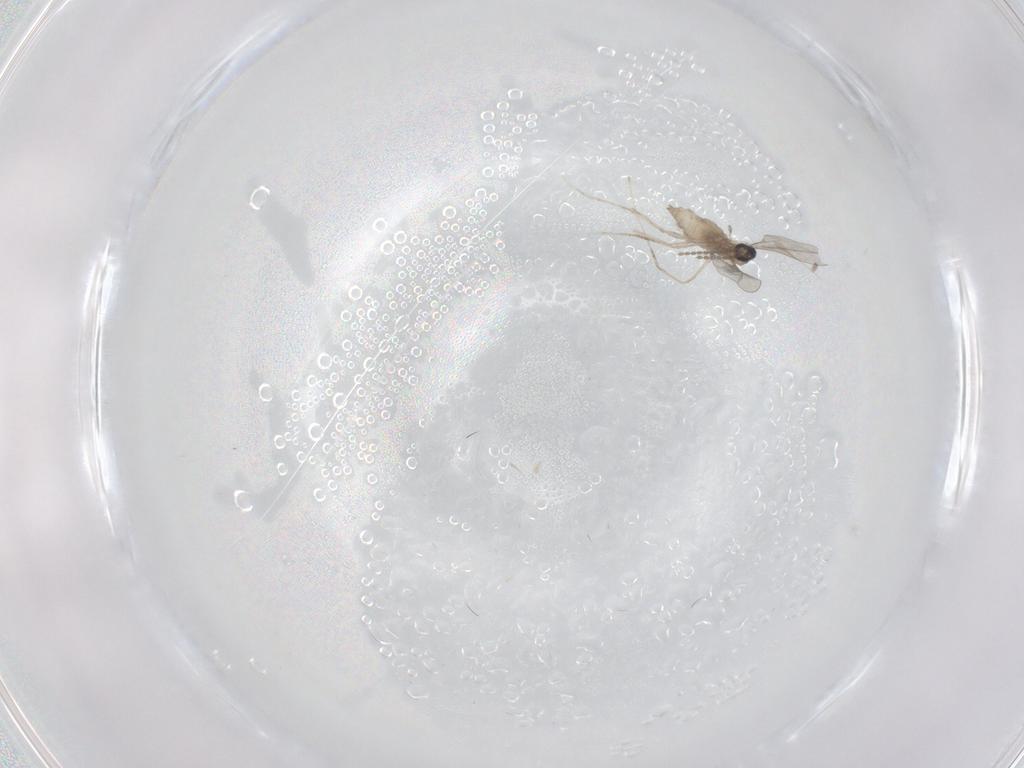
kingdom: Animalia
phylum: Arthropoda
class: Insecta
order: Diptera
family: Cecidomyiidae
